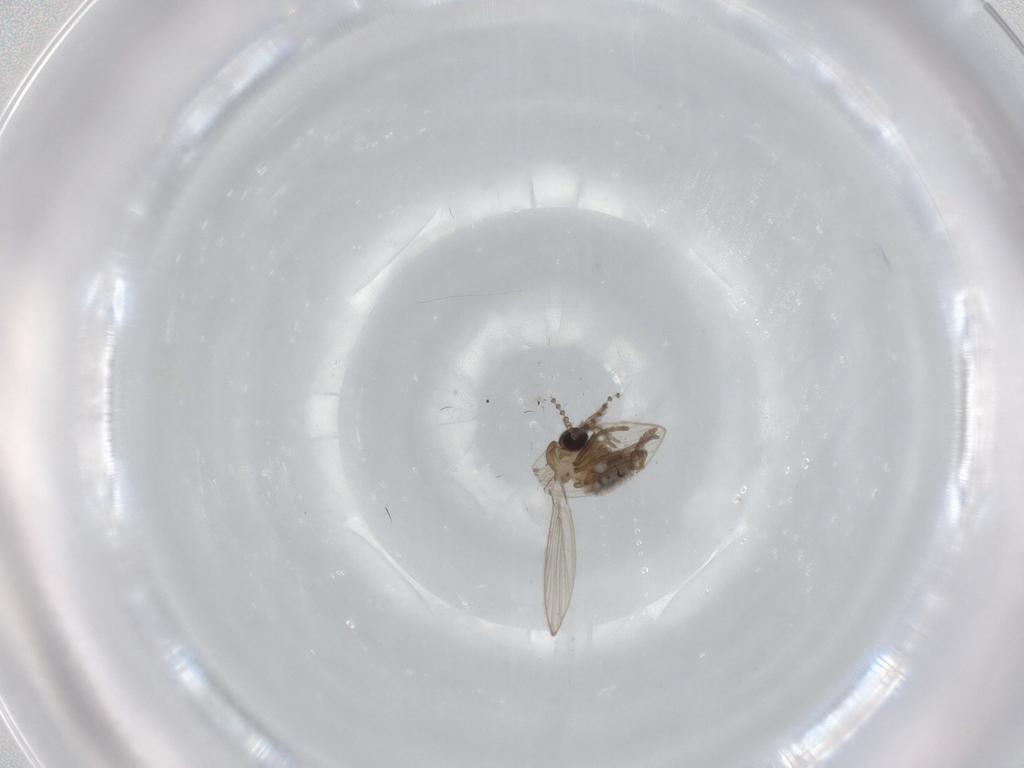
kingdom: Animalia
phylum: Arthropoda
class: Insecta
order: Diptera
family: Psychodidae
